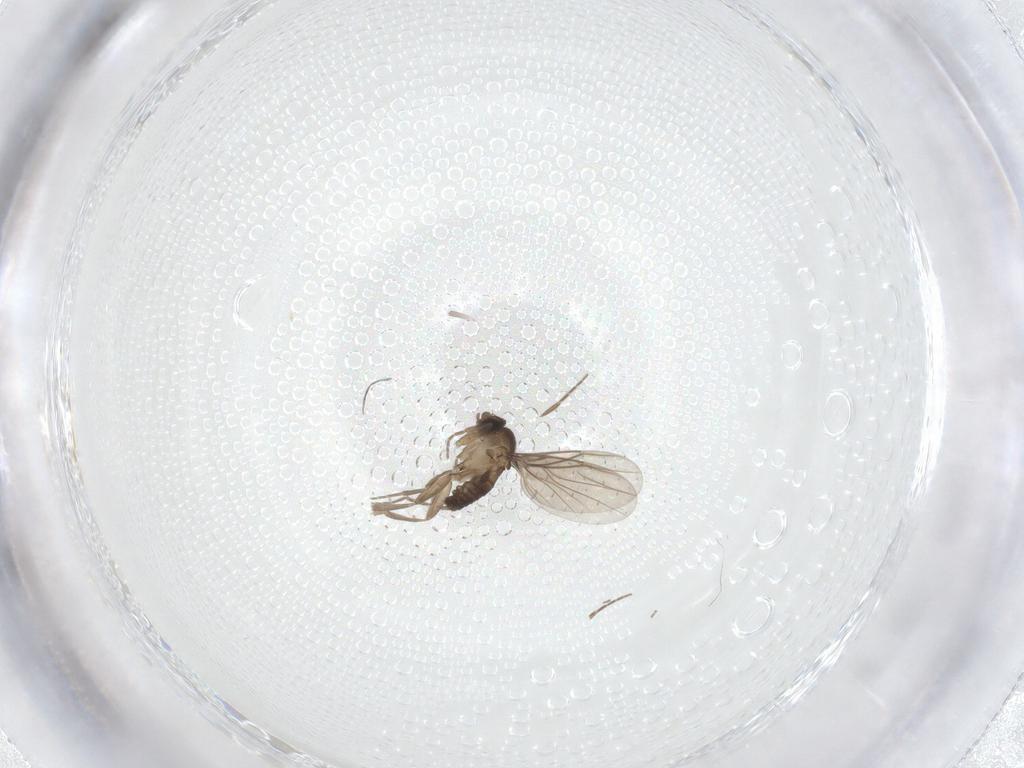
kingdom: Animalia
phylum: Arthropoda
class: Insecta
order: Diptera
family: Phoridae
